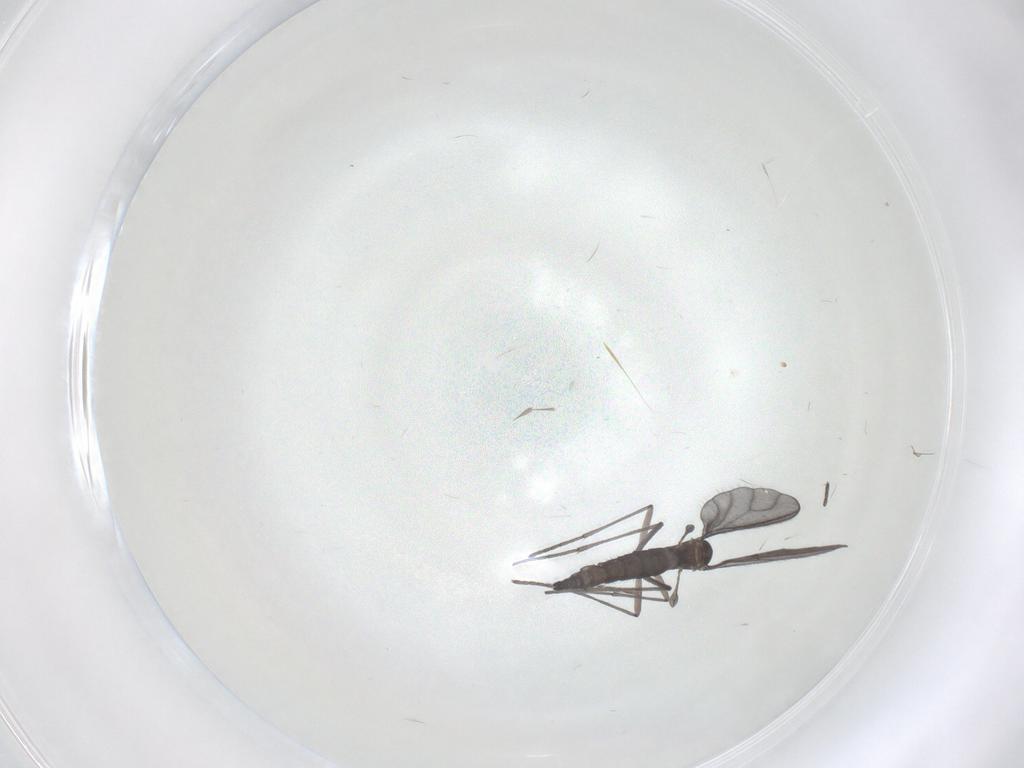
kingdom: Animalia
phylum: Arthropoda
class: Insecta
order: Diptera
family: Sciaridae
